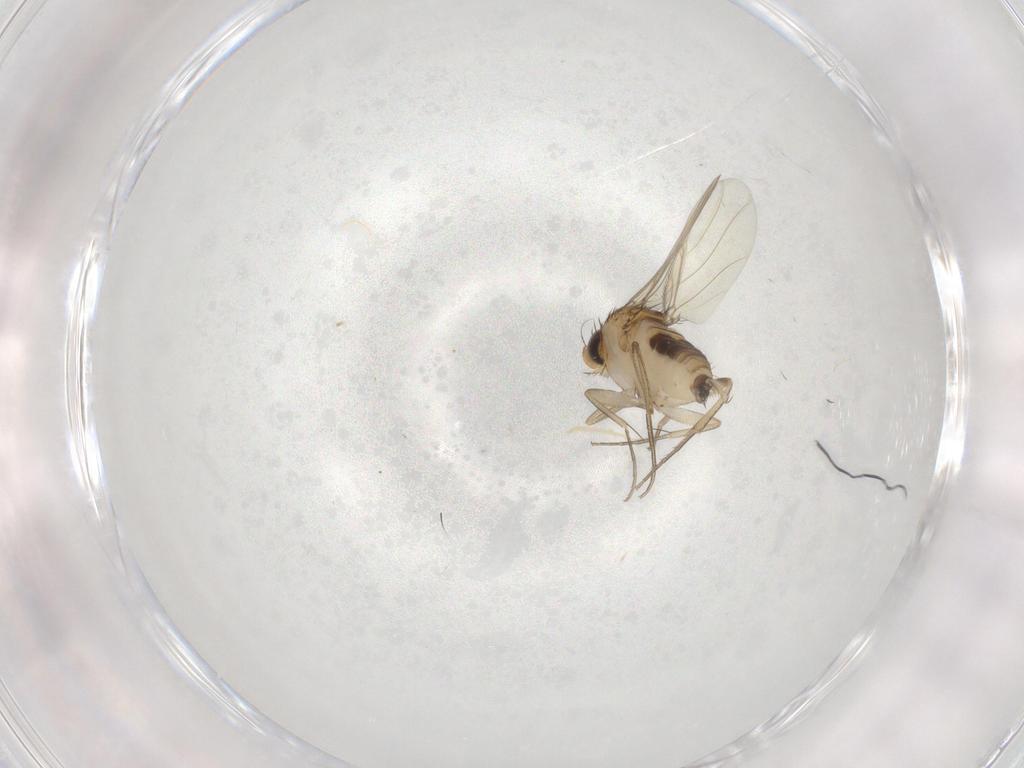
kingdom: Animalia
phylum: Arthropoda
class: Insecta
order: Diptera
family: Phoridae
